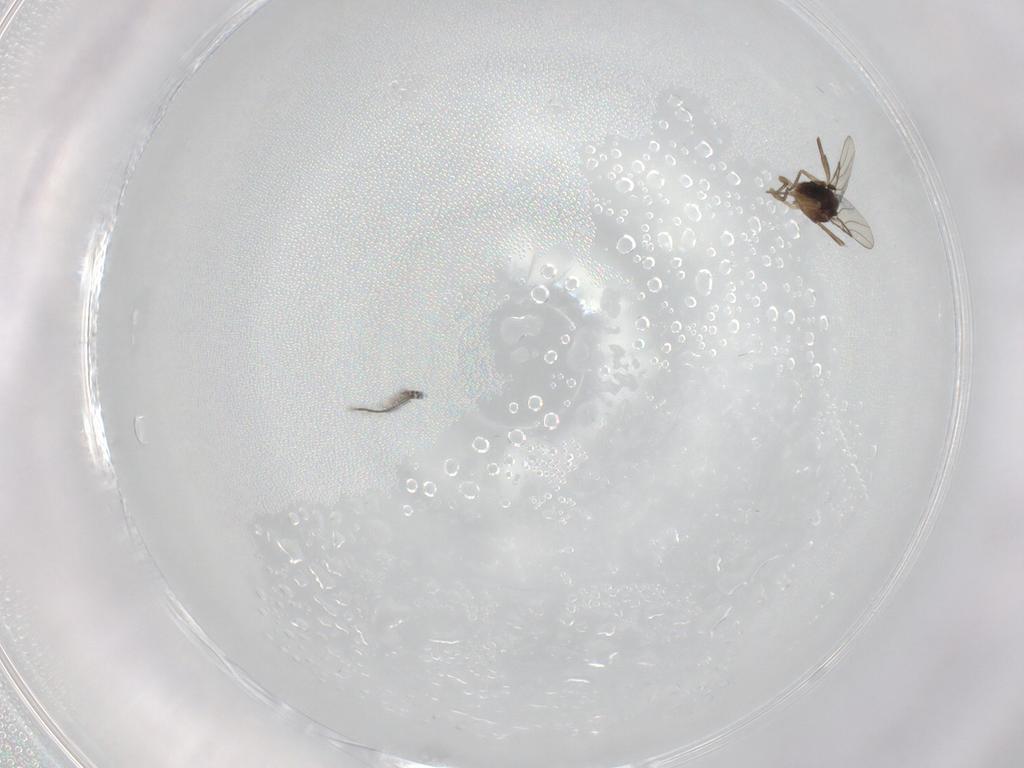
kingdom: Animalia
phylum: Arthropoda
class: Insecta
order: Diptera
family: Ceratopogonidae
